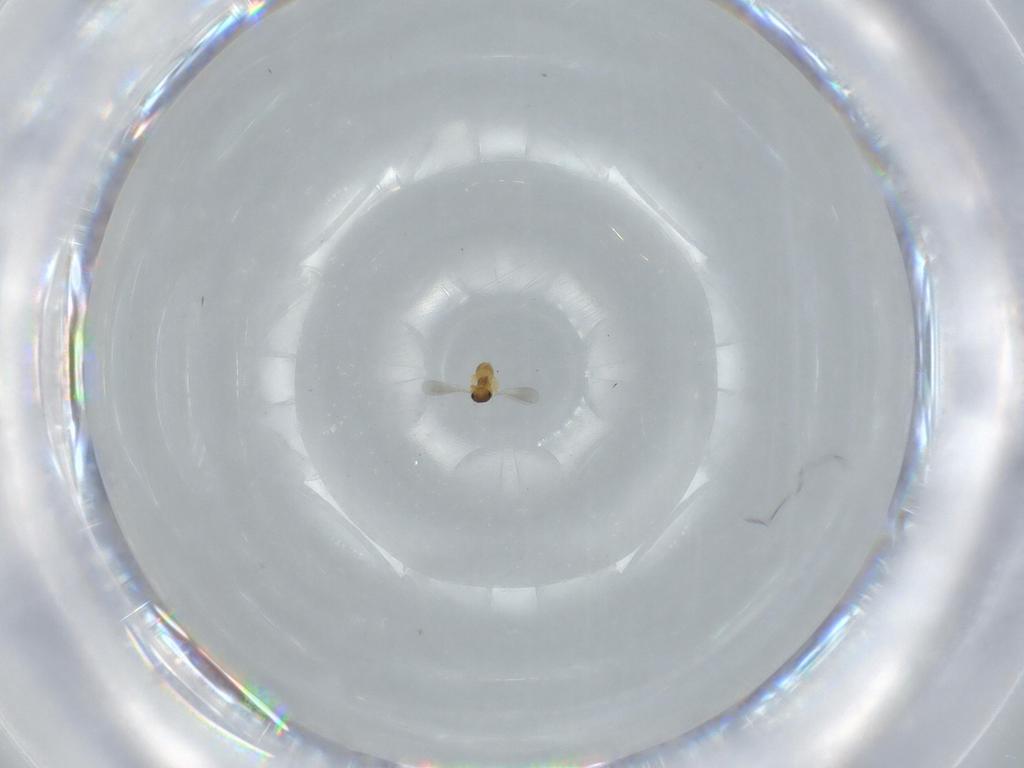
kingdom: Animalia
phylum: Arthropoda
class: Insecta
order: Hymenoptera
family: Platygastridae
